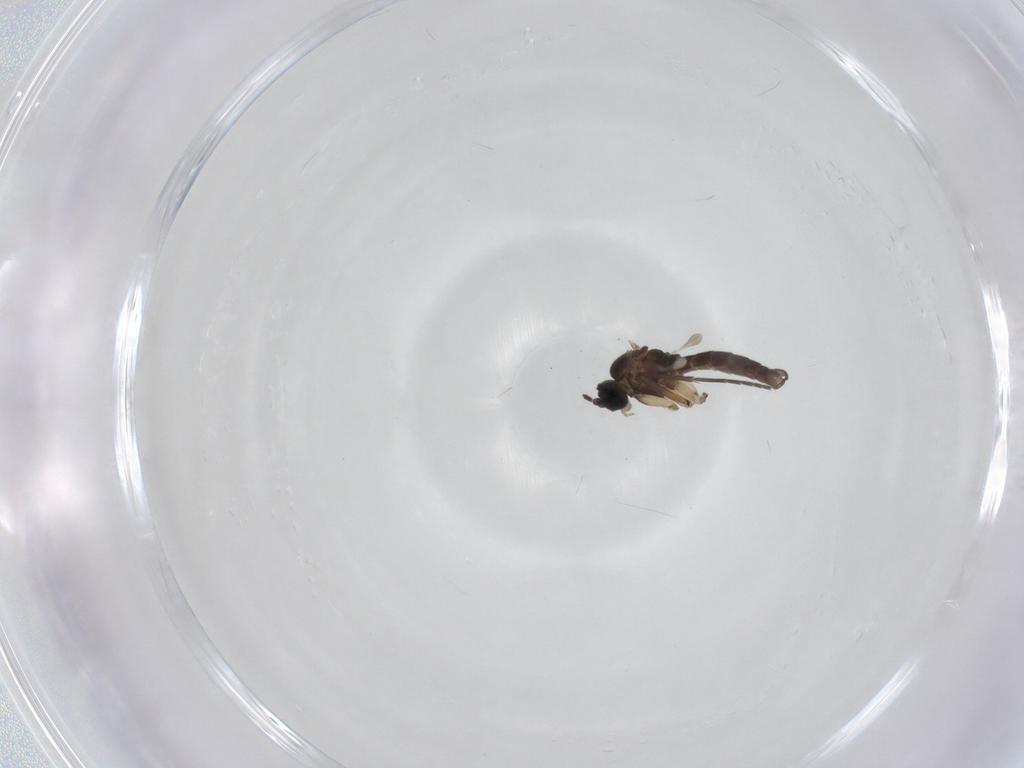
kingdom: Animalia
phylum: Arthropoda
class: Insecta
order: Diptera
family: Sciaridae
